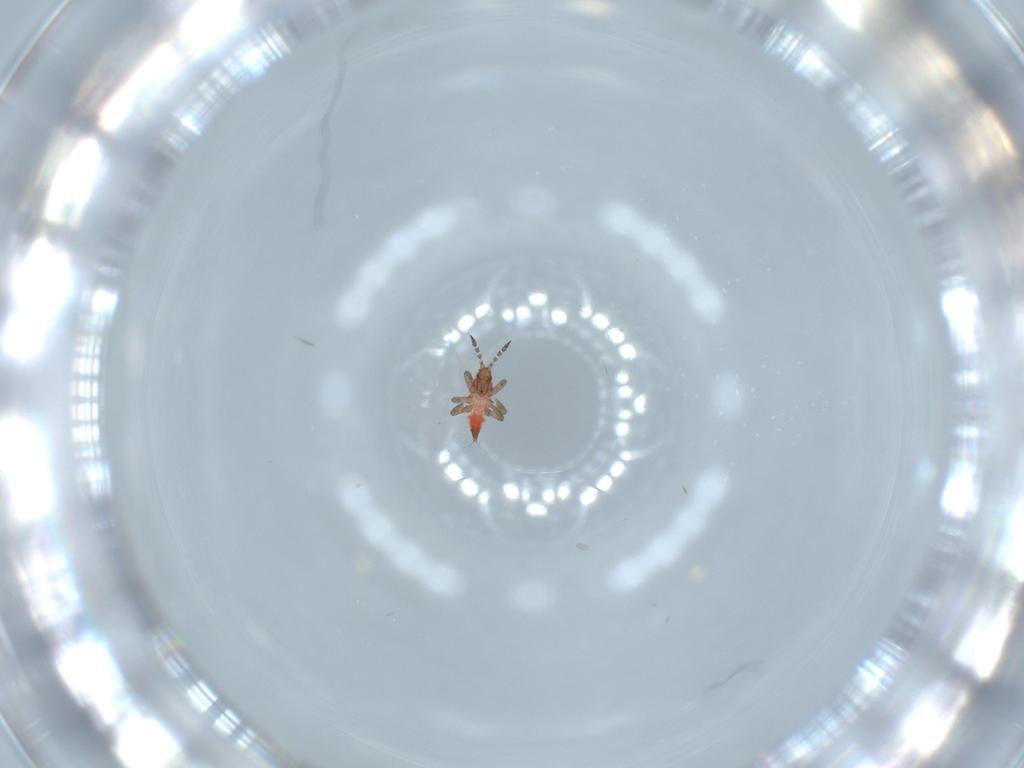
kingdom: Animalia
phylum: Arthropoda
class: Insecta
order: Thysanoptera
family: Phlaeothripidae
